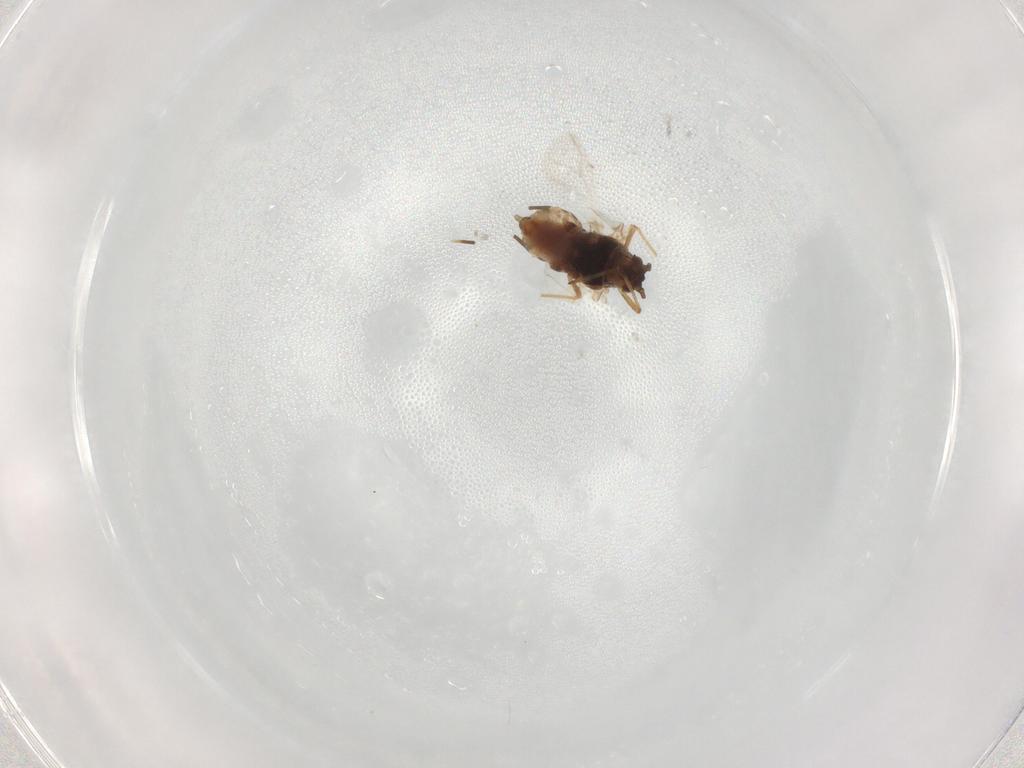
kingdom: Animalia
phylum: Arthropoda
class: Insecta
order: Hemiptera
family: Aphididae
